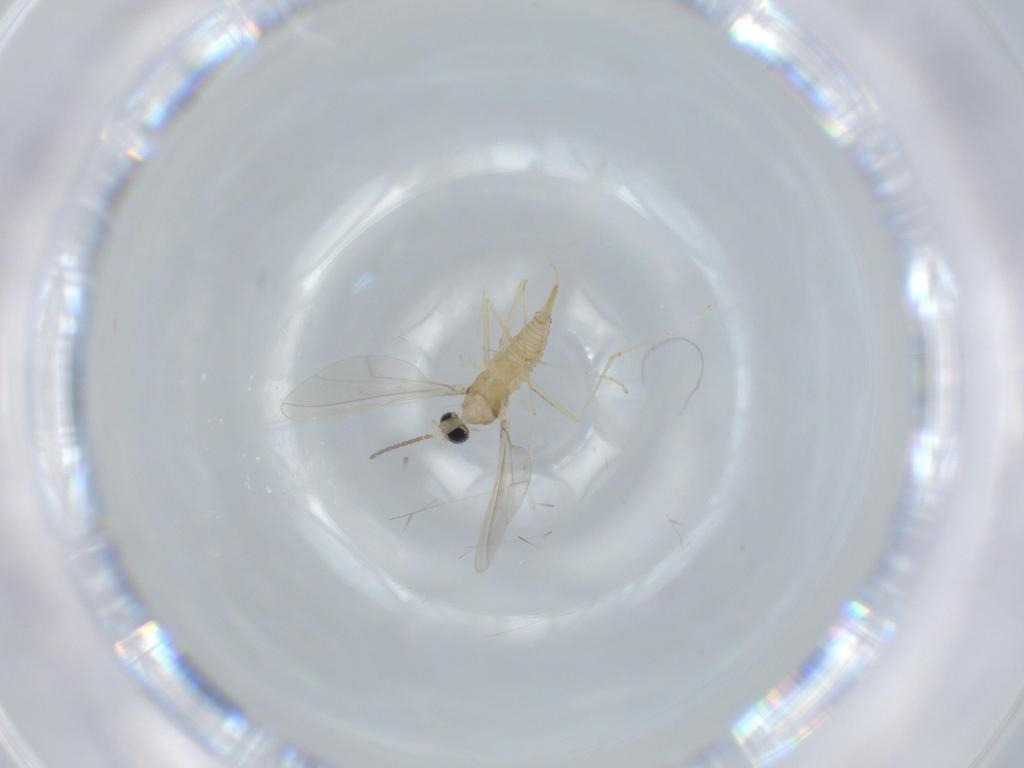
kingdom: Animalia
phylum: Arthropoda
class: Insecta
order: Diptera
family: Cecidomyiidae
